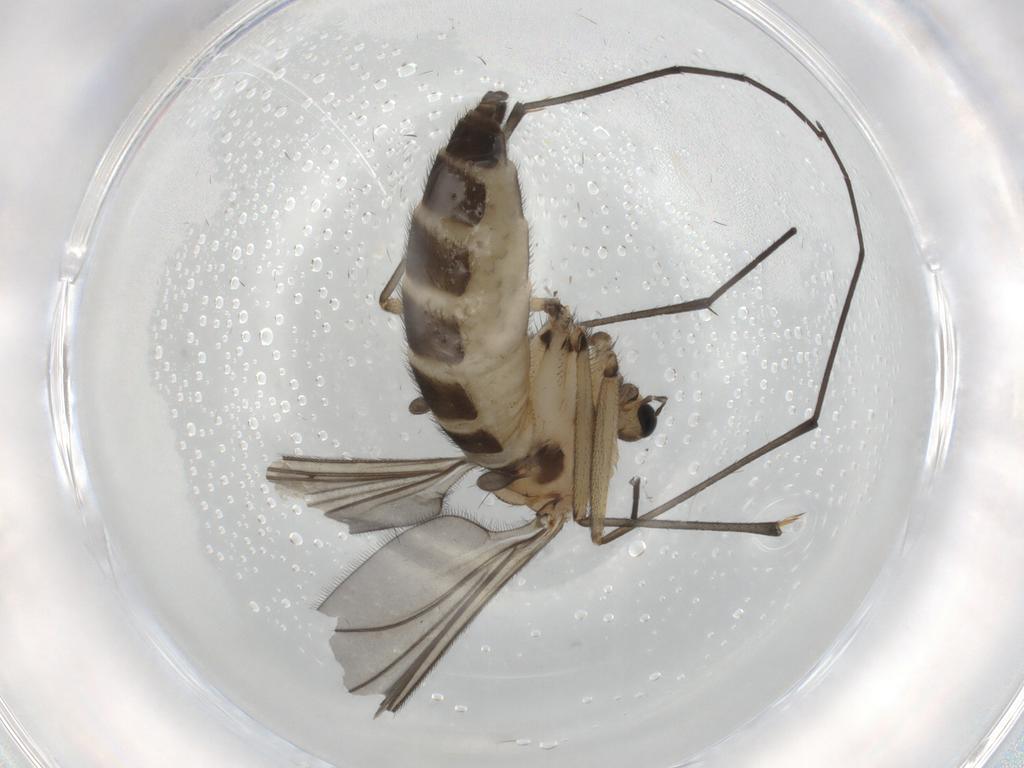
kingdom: Animalia
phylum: Arthropoda
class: Insecta
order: Diptera
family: Sciaridae
